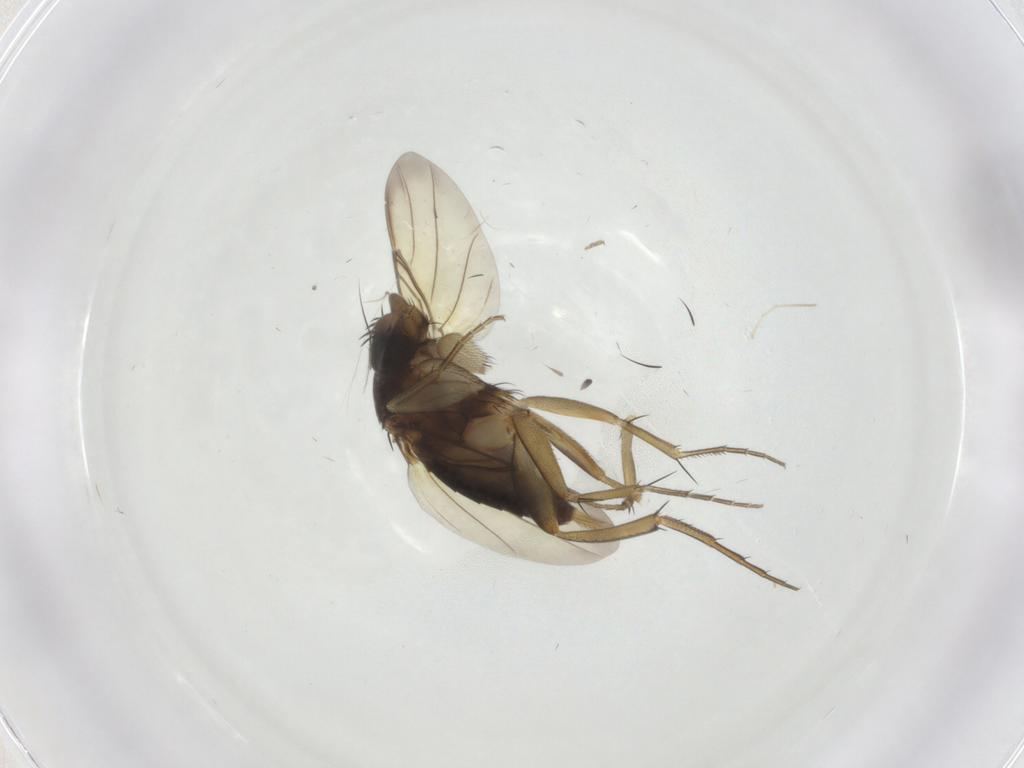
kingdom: Animalia
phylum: Arthropoda
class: Insecta
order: Diptera
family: Phoridae
